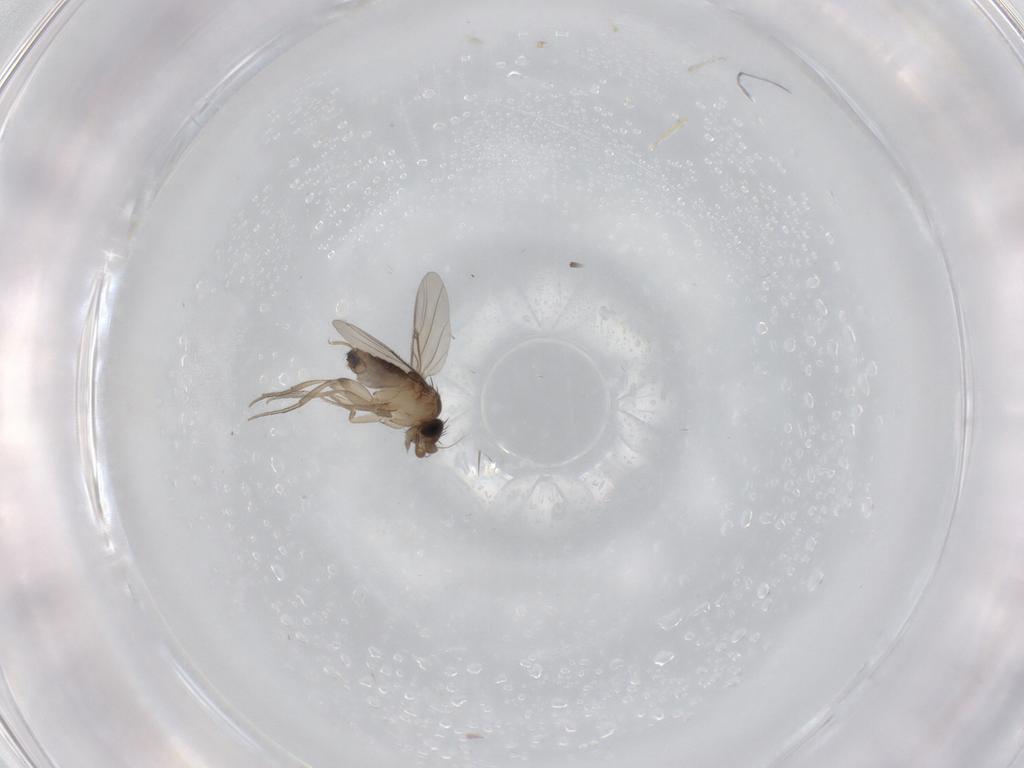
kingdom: Animalia
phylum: Arthropoda
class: Insecta
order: Diptera
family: Phoridae
